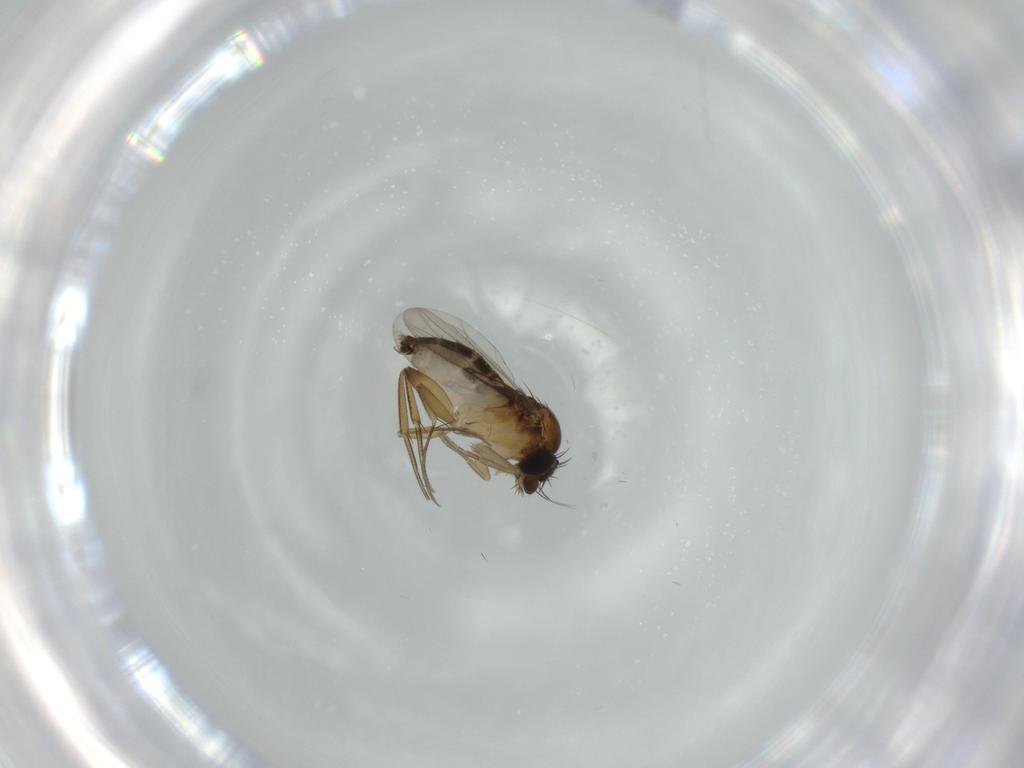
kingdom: Animalia
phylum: Arthropoda
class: Insecta
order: Diptera
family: Phoridae
